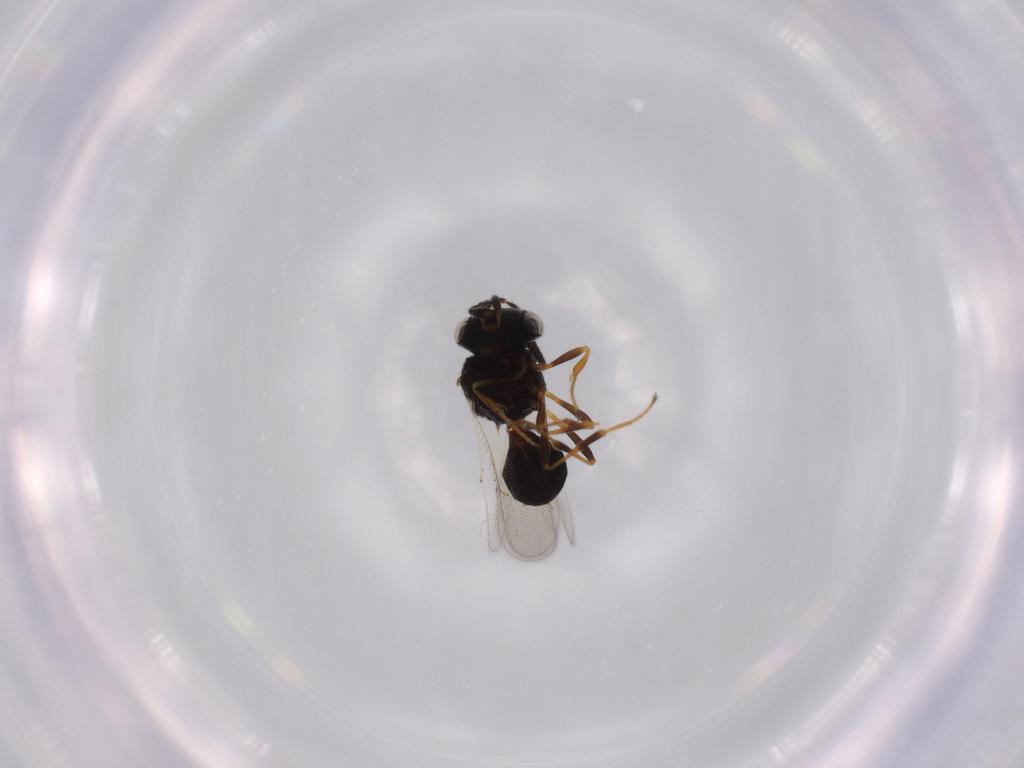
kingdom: Animalia
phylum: Arthropoda
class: Insecta
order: Hymenoptera
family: Scelionidae
